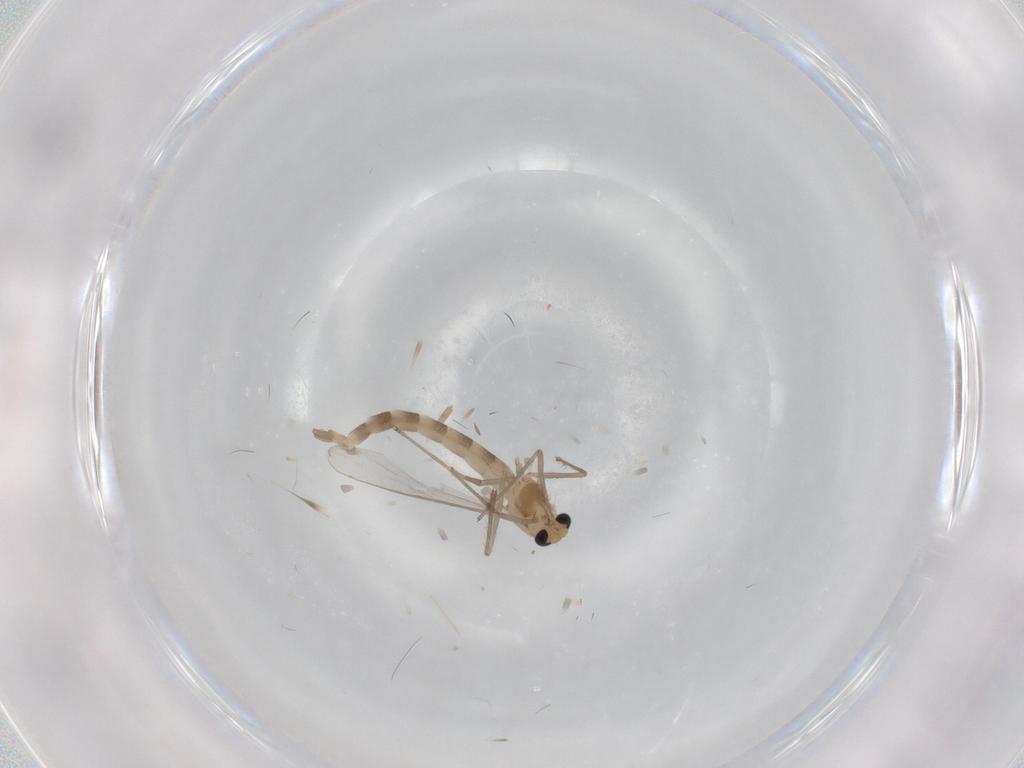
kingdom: Animalia
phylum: Arthropoda
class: Insecta
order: Diptera
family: Chironomidae
